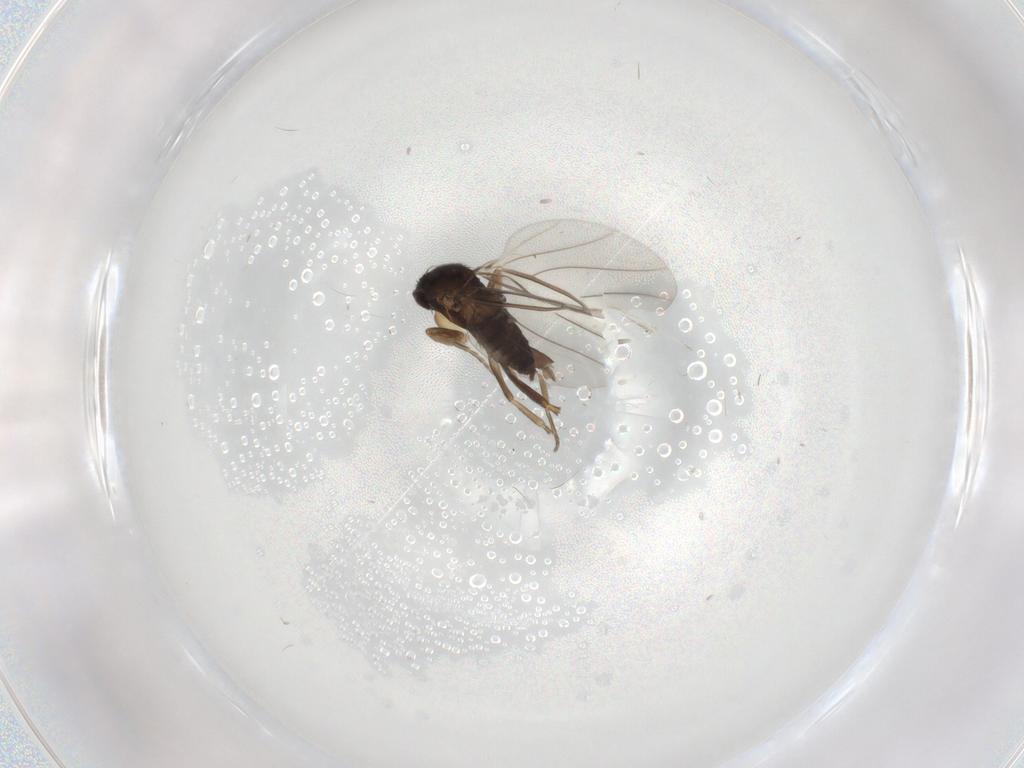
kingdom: Animalia
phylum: Arthropoda
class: Insecta
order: Diptera
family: Phoridae
